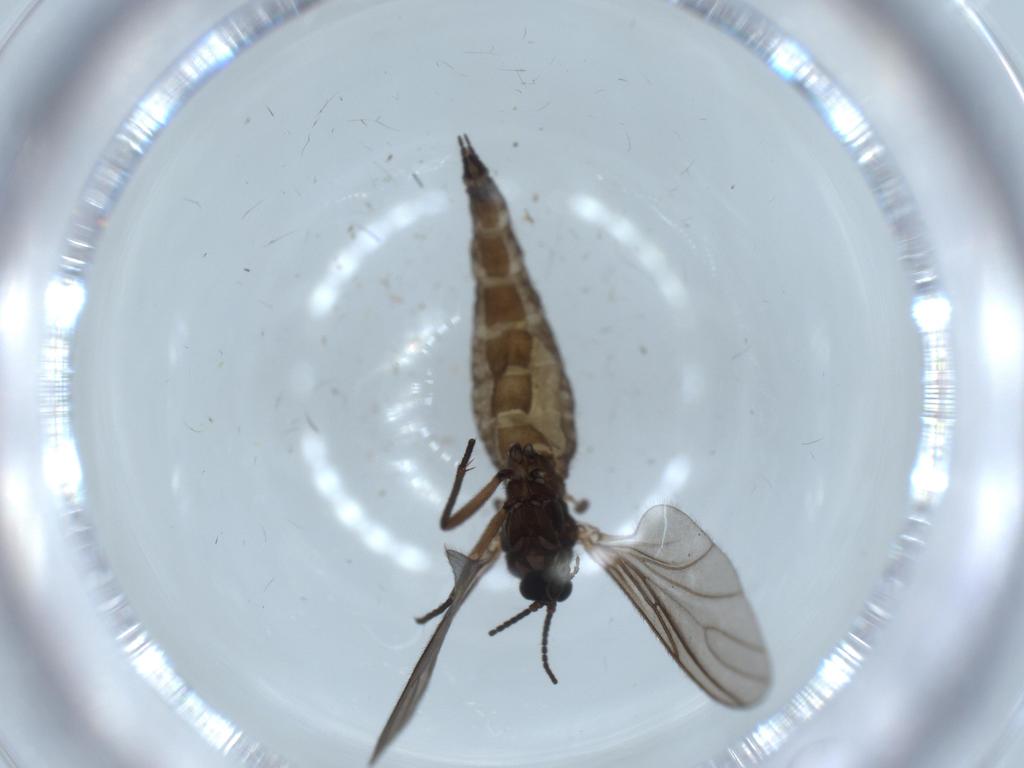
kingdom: Animalia
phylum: Arthropoda
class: Insecta
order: Diptera
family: Sciaridae
